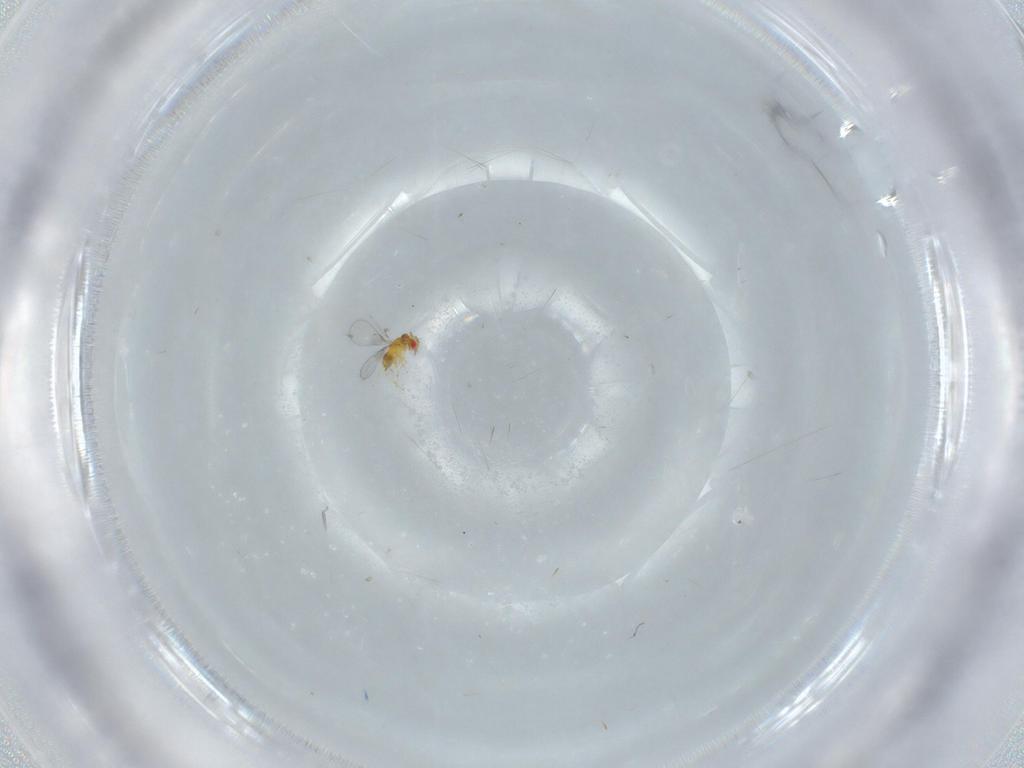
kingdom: Animalia
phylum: Arthropoda
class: Insecta
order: Hymenoptera
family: Trichogrammatidae
